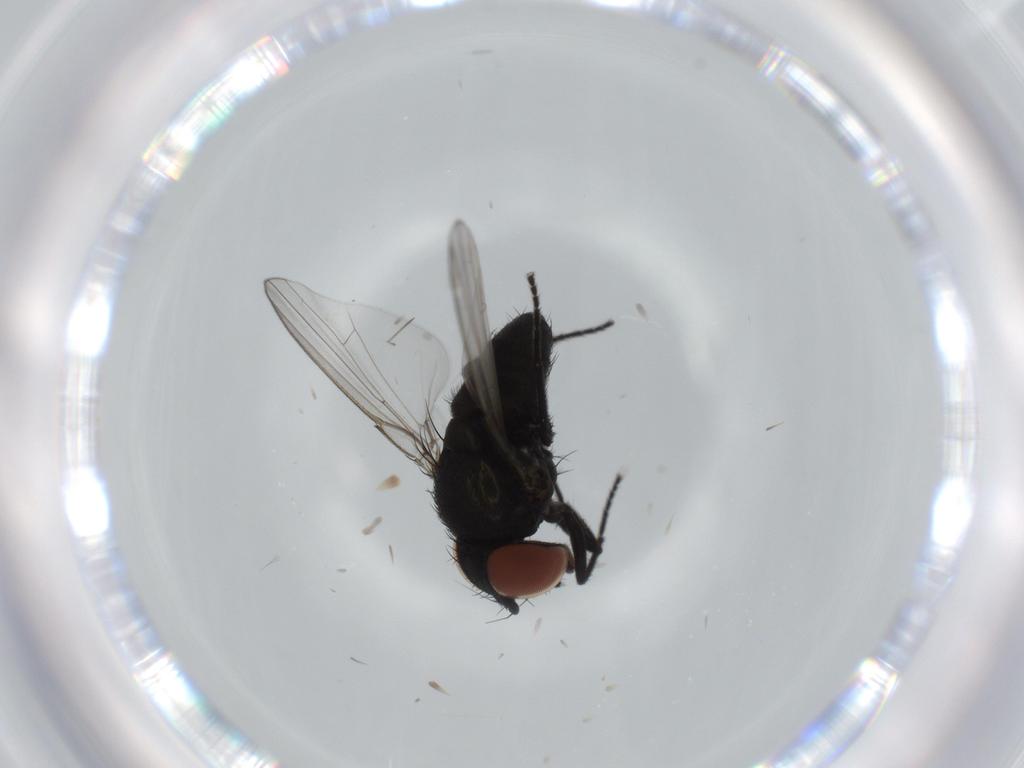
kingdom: Animalia
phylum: Arthropoda
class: Insecta
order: Diptera
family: Milichiidae
